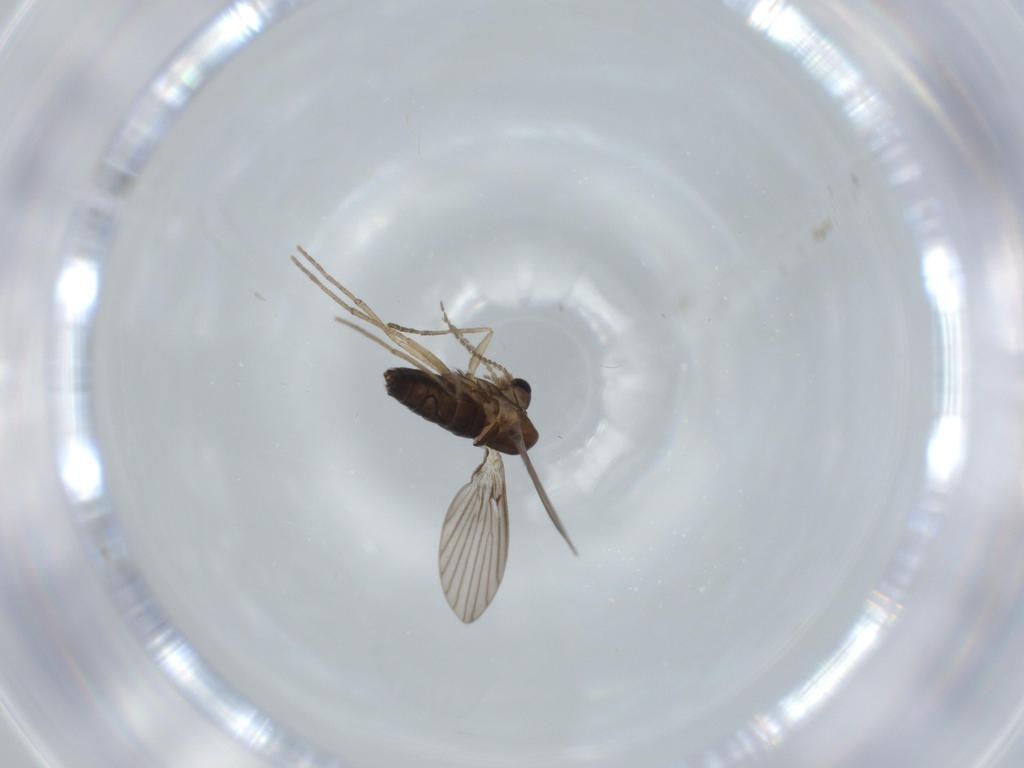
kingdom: Animalia
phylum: Arthropoda
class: Insecta
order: Diptera
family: Psychodidae
